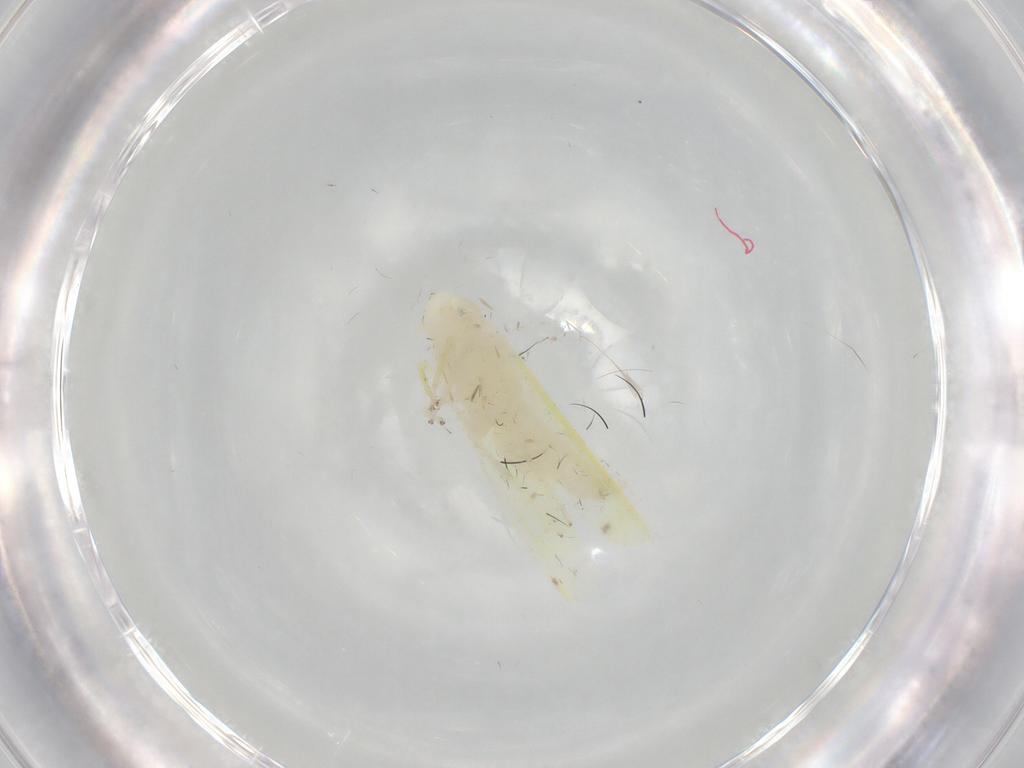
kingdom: Animalia
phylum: Arthropoda
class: Insecta
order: Hemiptera
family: Cicadellidae
